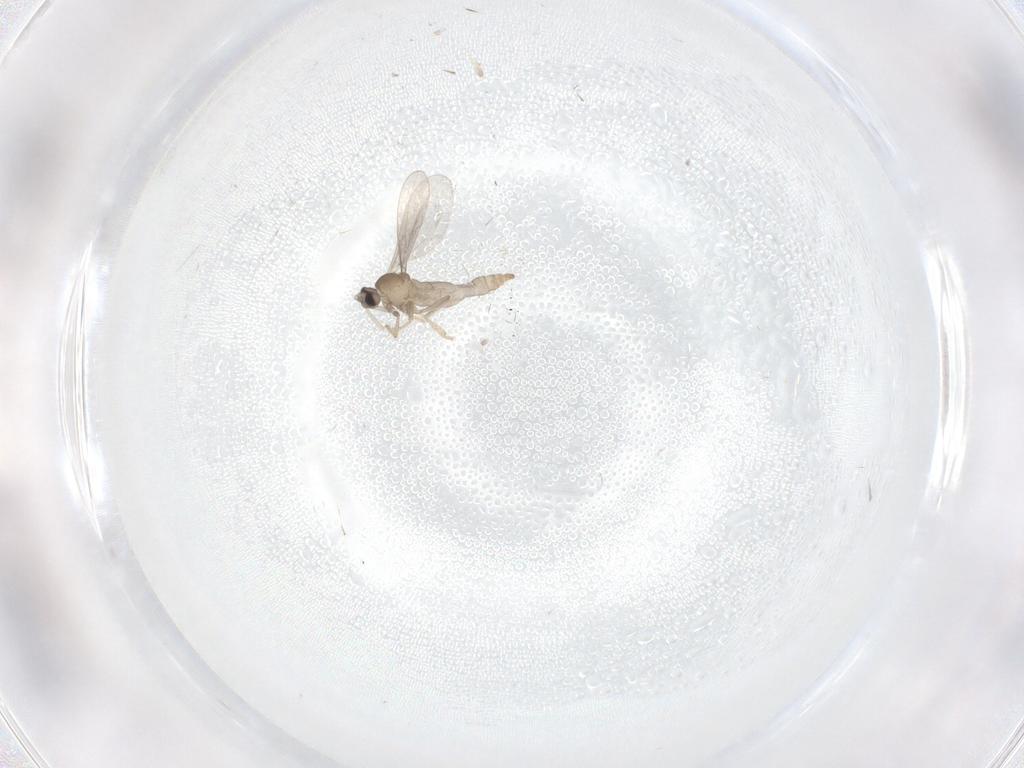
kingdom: Animalia
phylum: Arthropoda
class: Insecta
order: Diptera
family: Cecidomyiidae
